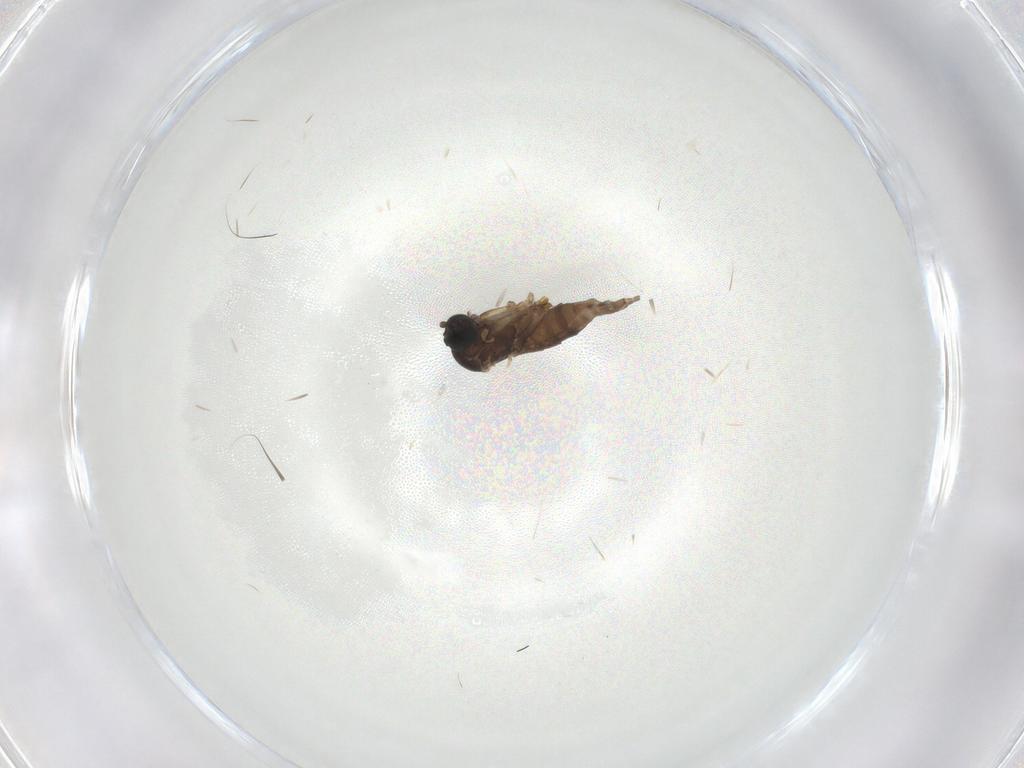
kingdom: Animalia
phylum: Arthropoda
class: Insecta
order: Diptera
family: Sciaridae
